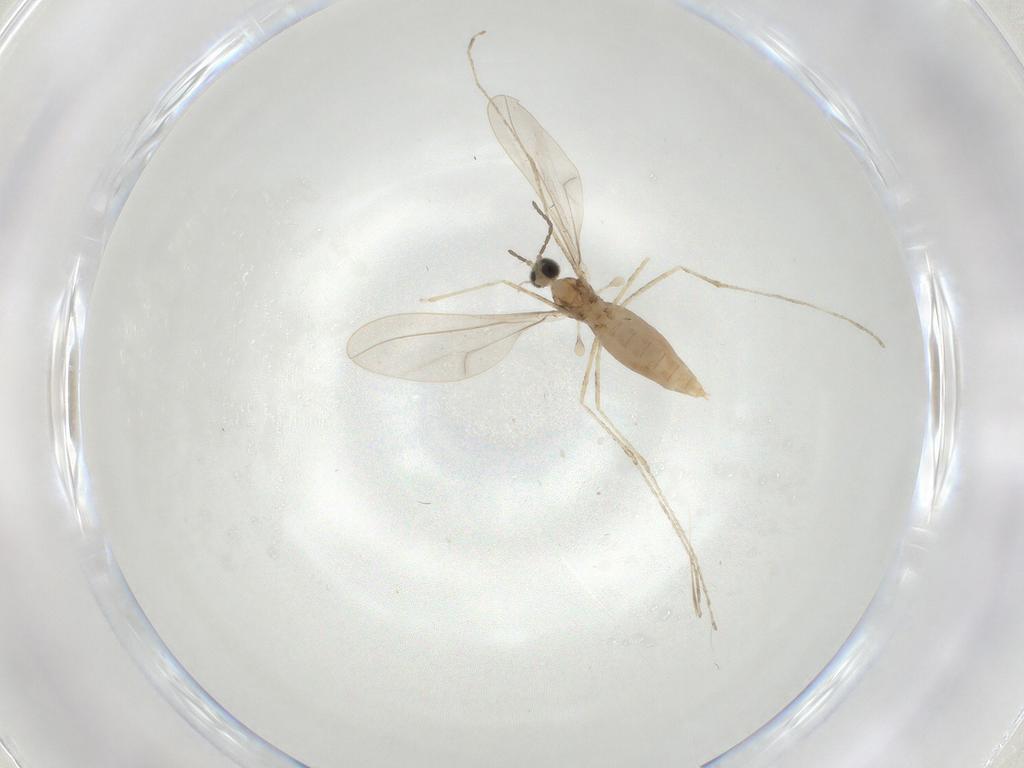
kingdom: Animalia
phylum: Arthropoda
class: Insecta
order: Diptera
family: Cecidomyiidae
